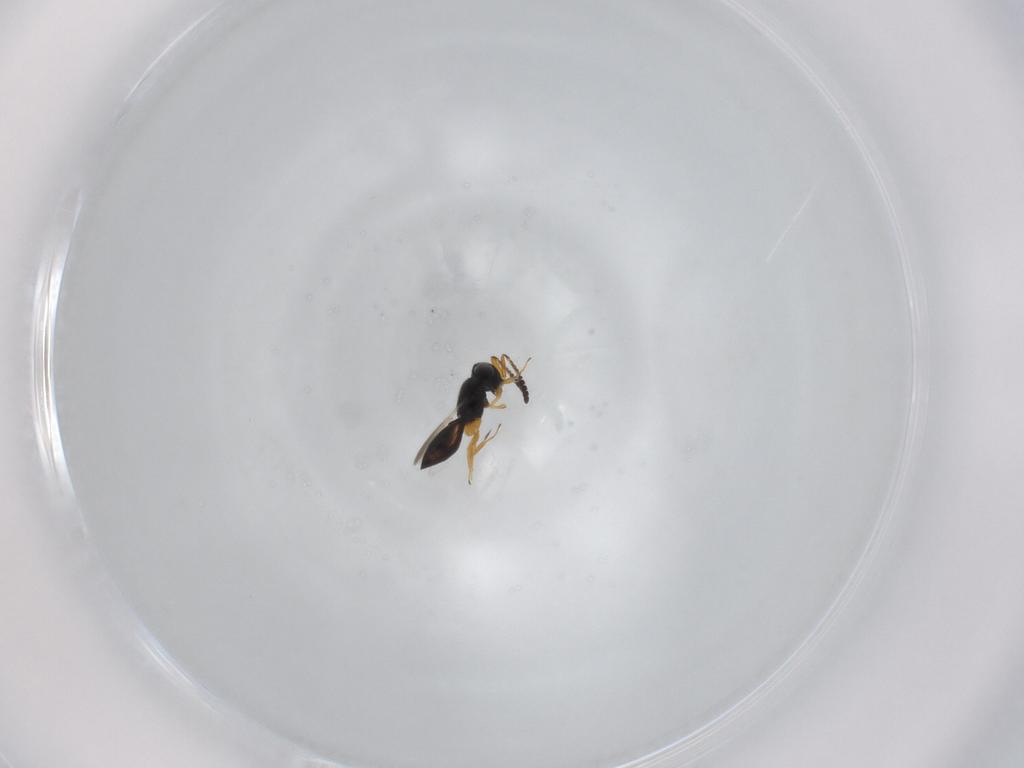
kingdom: Animalia
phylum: Arthropoda
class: Insecta
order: Hymenoptera
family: Scelionidae
